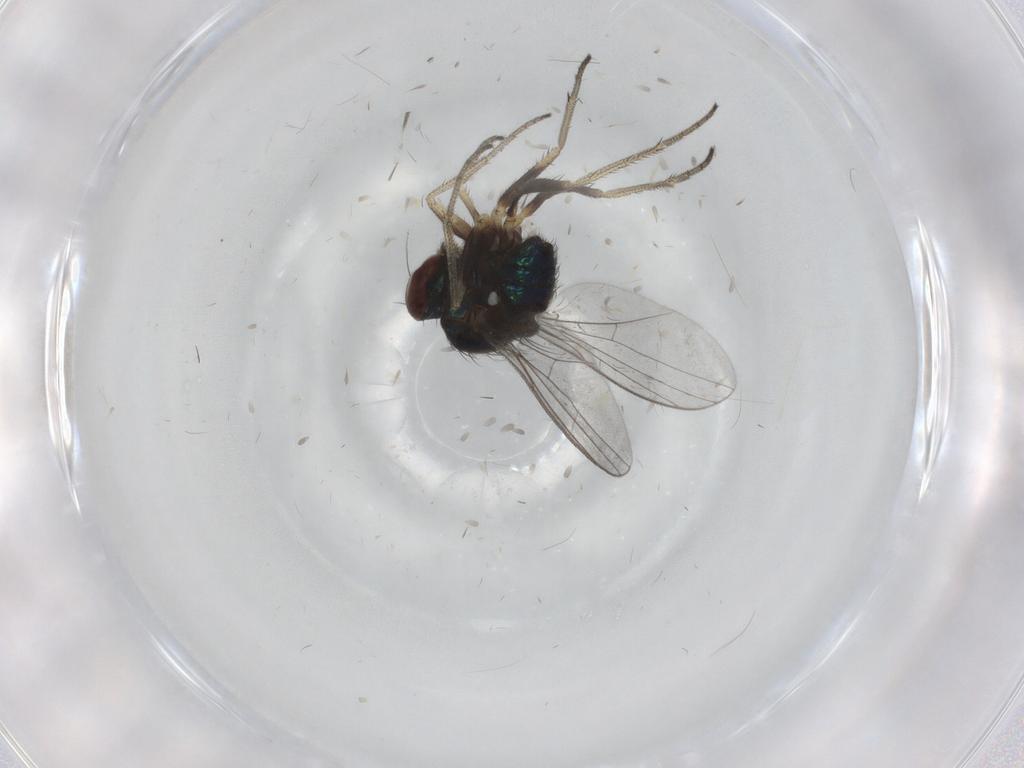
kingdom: Animalia
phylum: Arthropoda
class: Insecta
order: Diptera
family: Dolichopodidae
